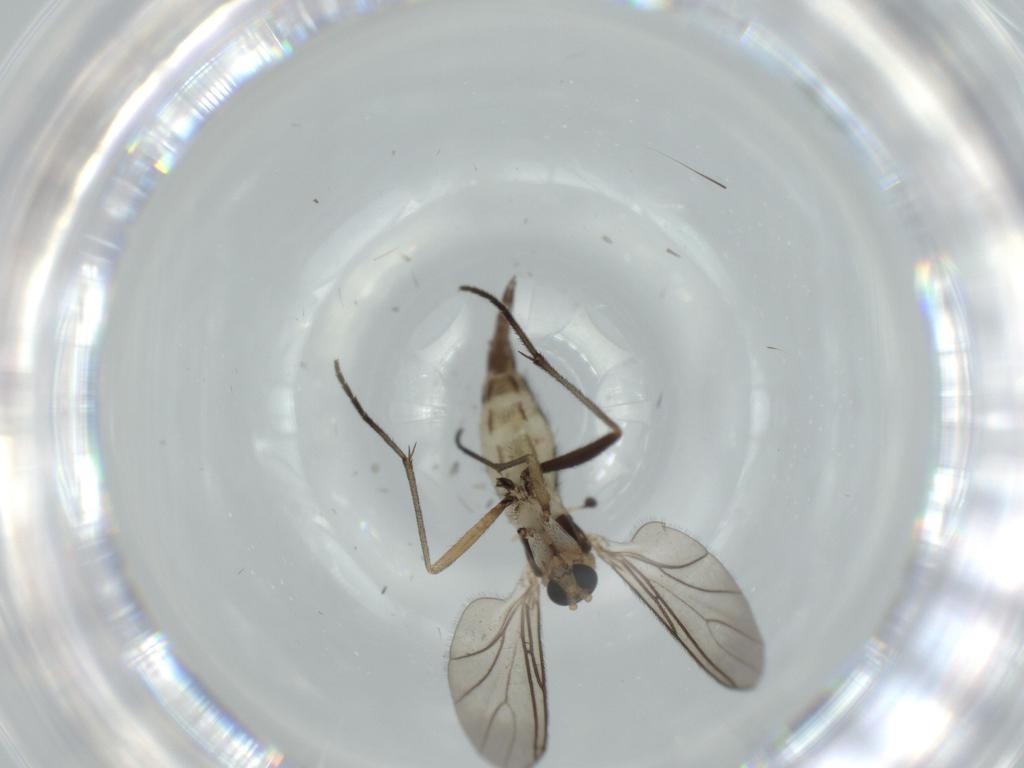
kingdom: Animalia
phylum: Arthropoda
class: Insecta
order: Diptera
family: Sciaridae
